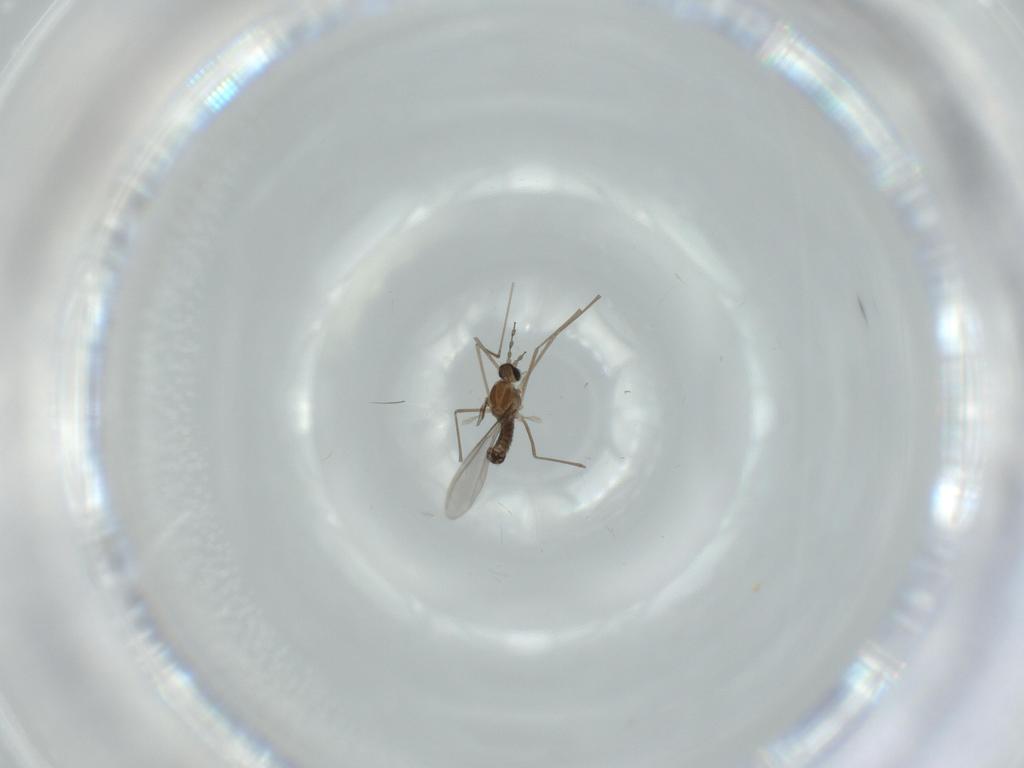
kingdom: Animalia
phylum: Arthropoda
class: Insecta
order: Diptera
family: Cecidomyiidae
